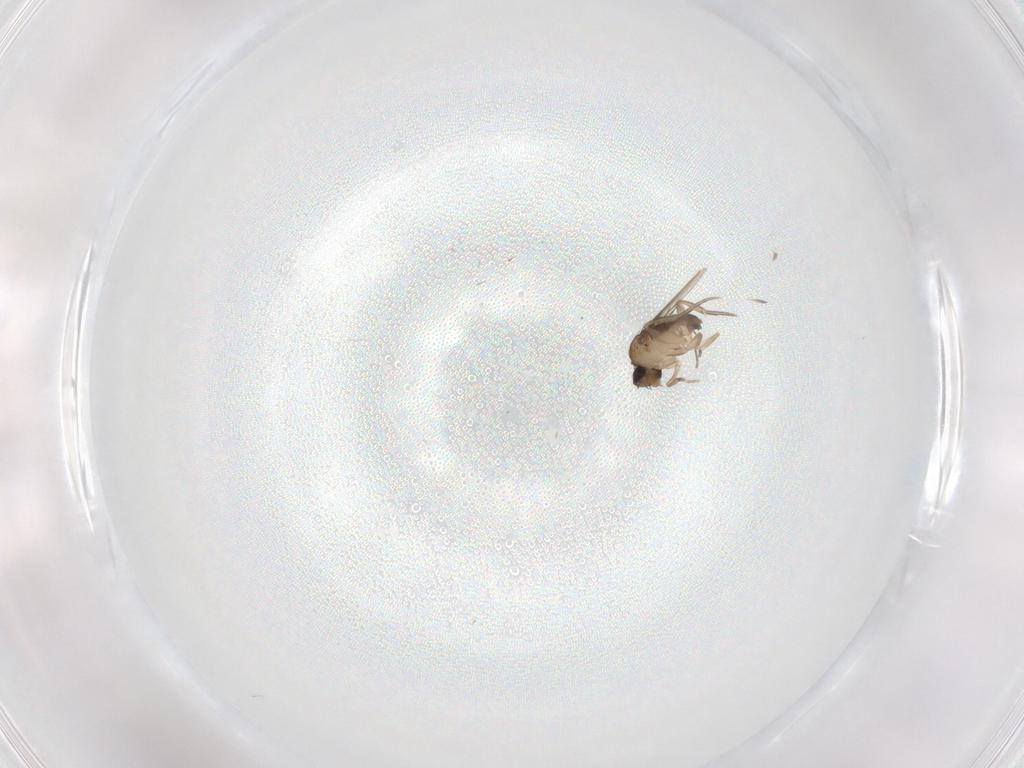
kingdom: Animalia
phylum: Arthropoda
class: Insecta
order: Diptera
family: Phoridae
